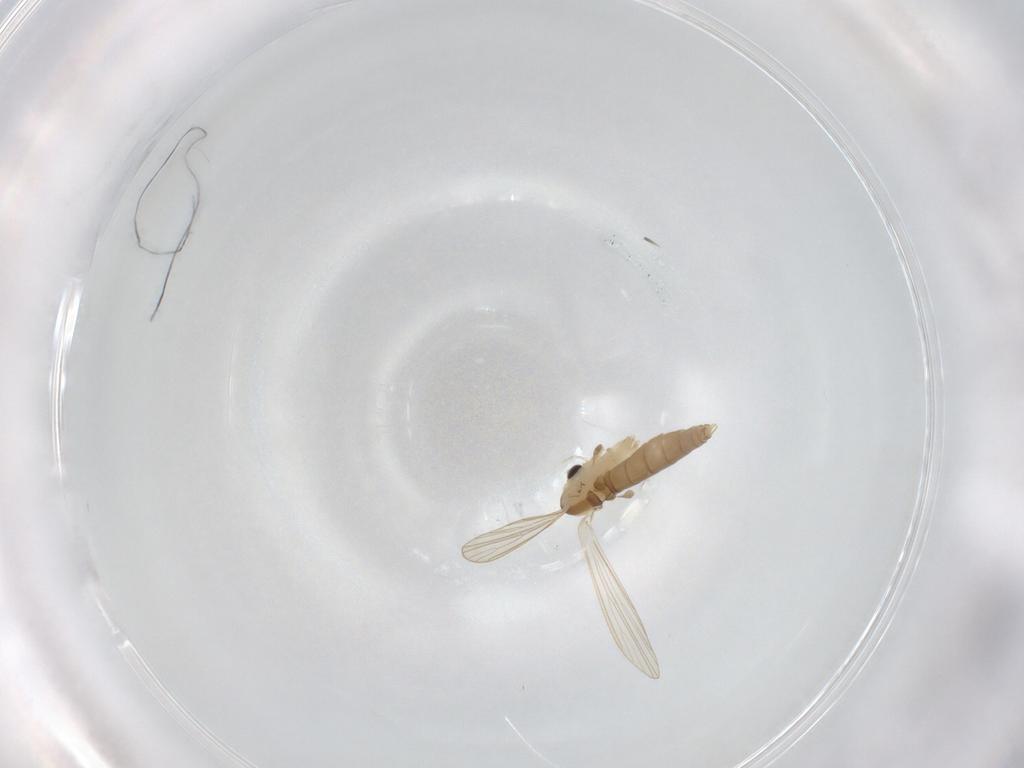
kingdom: Animalia
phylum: Arthropoda
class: Insecta
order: Diptera
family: Psychodidae
